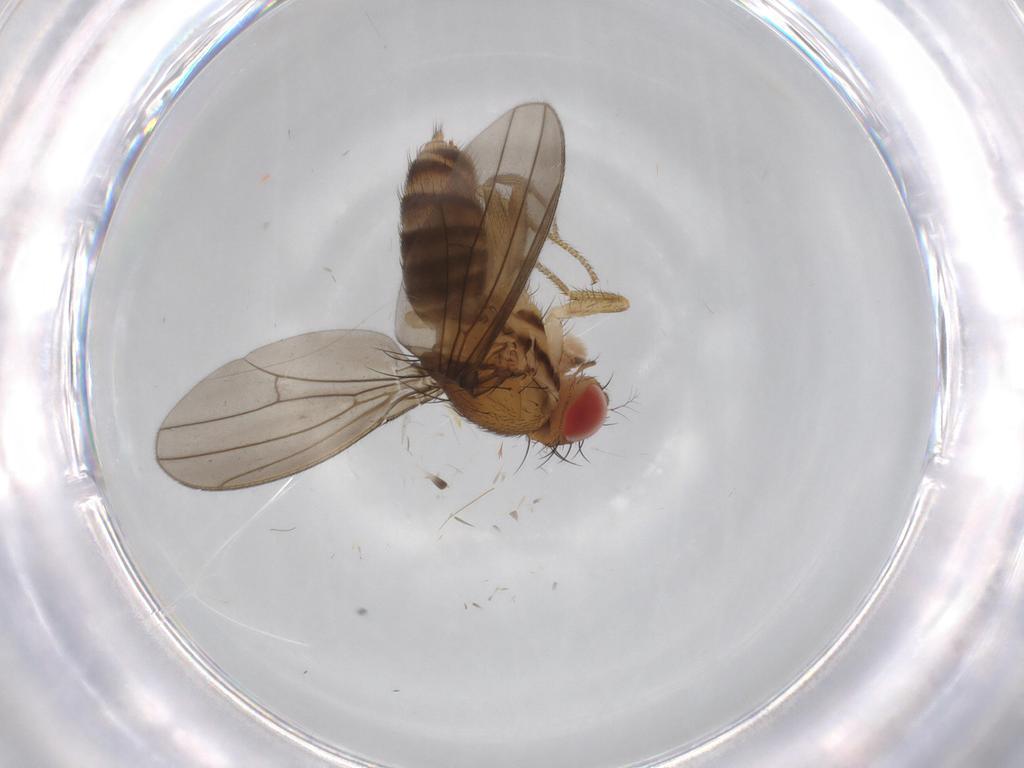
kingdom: Animalia
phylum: Arthropoda
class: Insecta
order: Diptera
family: Drosophilidae
